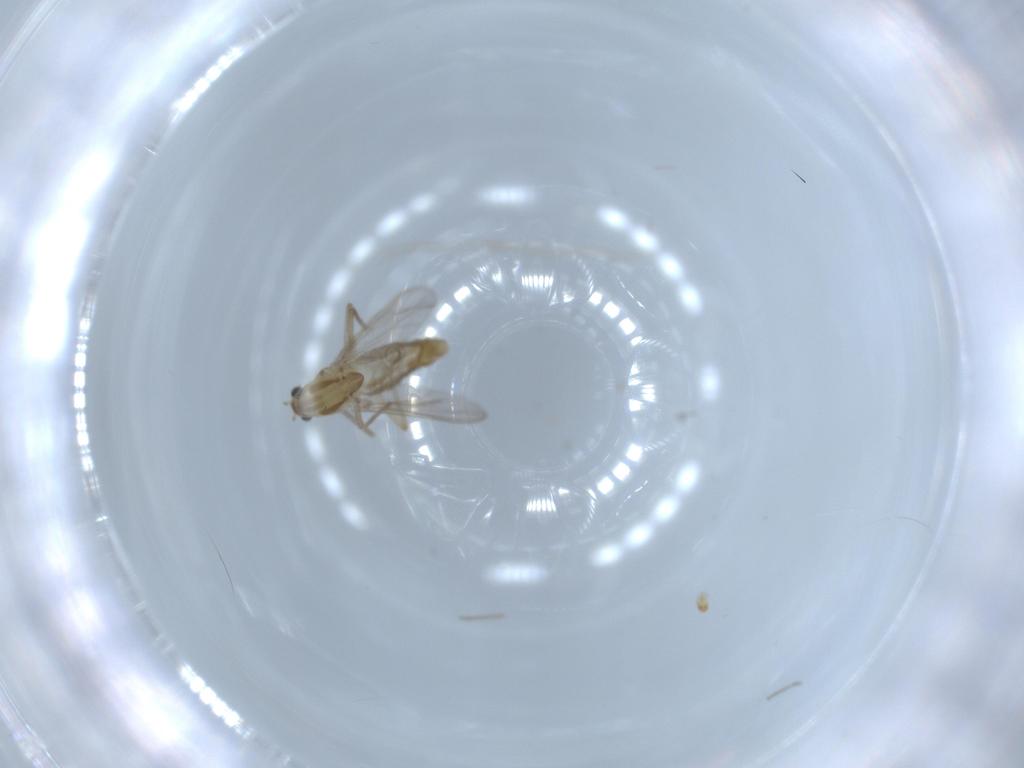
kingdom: Animalia
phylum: Arthropoda
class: Insecta
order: Diptera
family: Chironomidae
